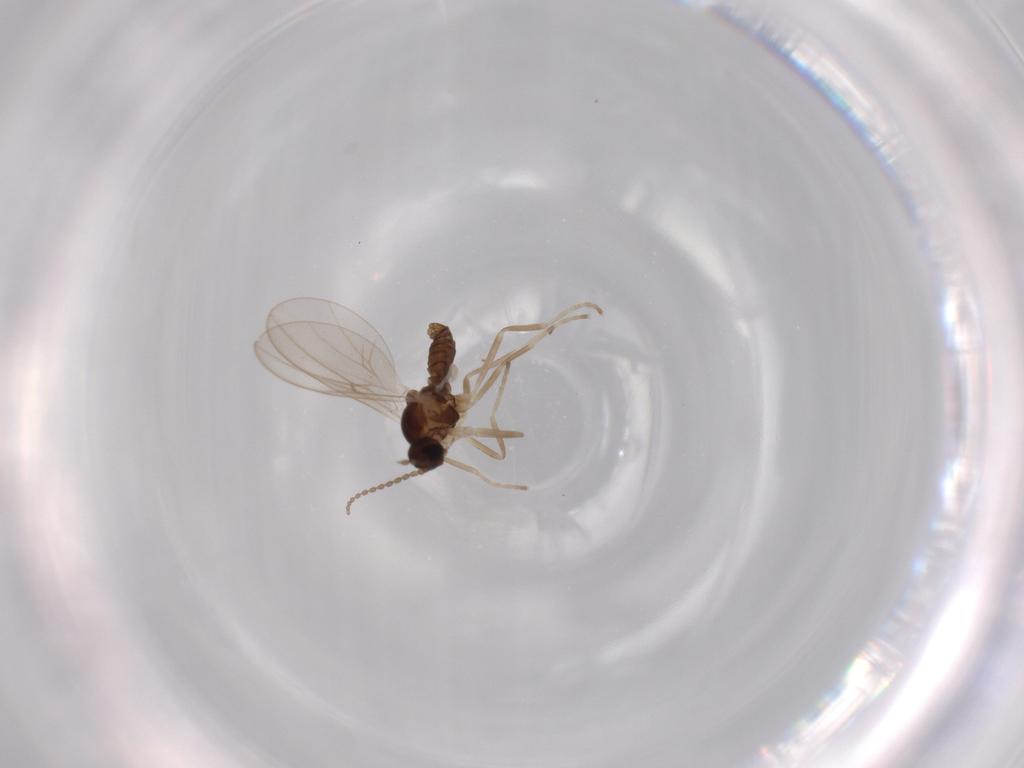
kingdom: Animalia
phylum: Arthropoda
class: Insecta
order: Diptera
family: Cecidomyiidae
